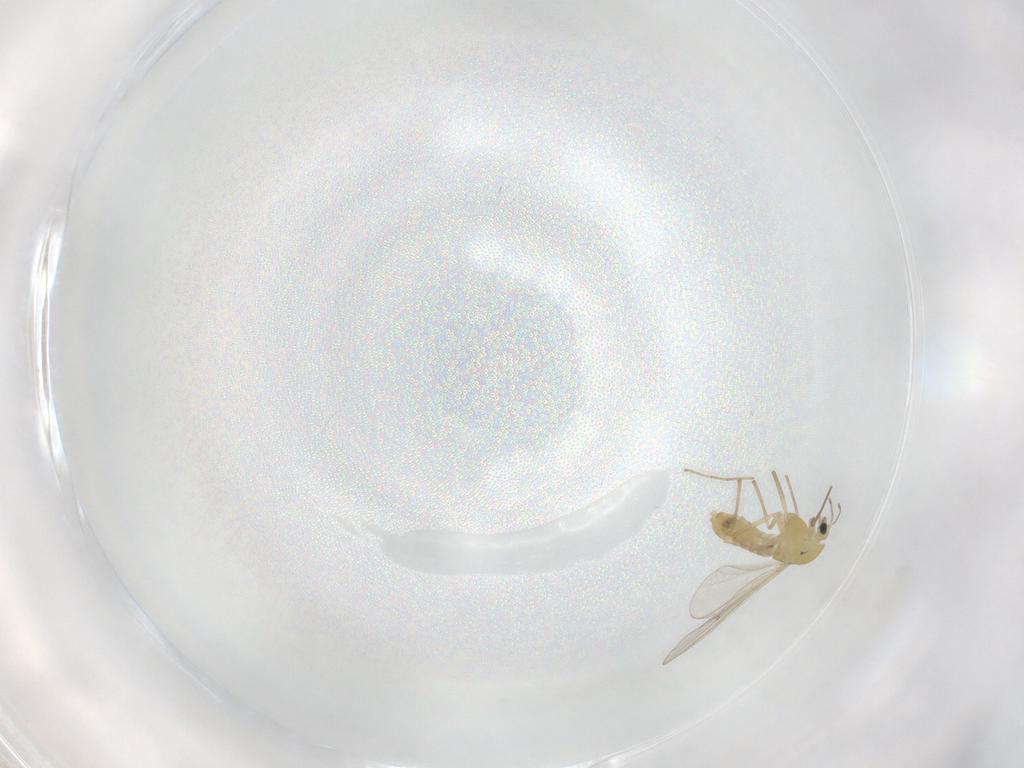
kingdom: Animalia
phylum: Arthropoda
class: Insecta
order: Diptera
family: Chironomidae
